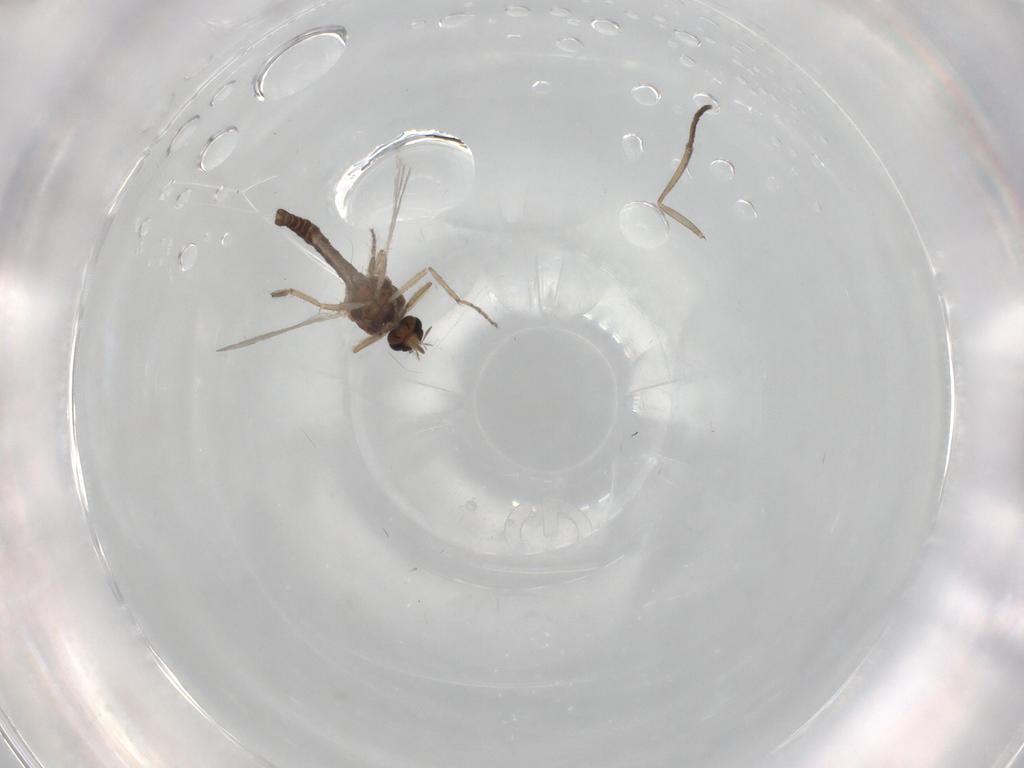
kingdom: Animalia
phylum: Arthropoda
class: Insecta
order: Diptera
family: Ceratopogonidae
